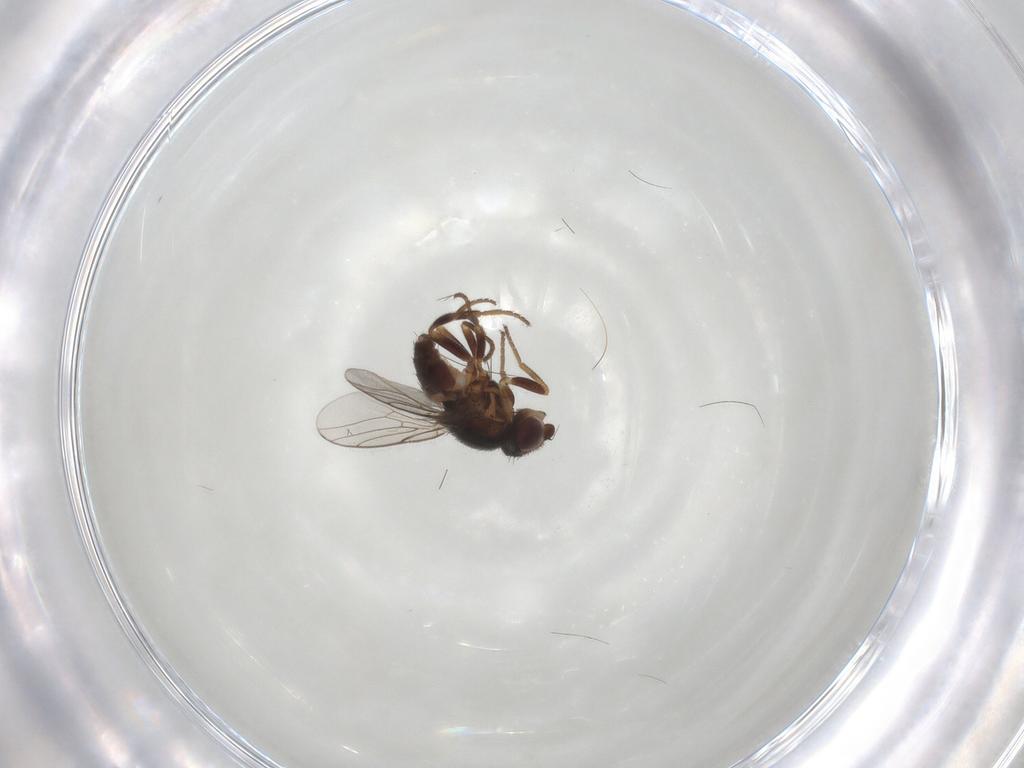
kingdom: Animalia
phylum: Arthropoda
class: Insecta
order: Diptera
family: Chloropidae
